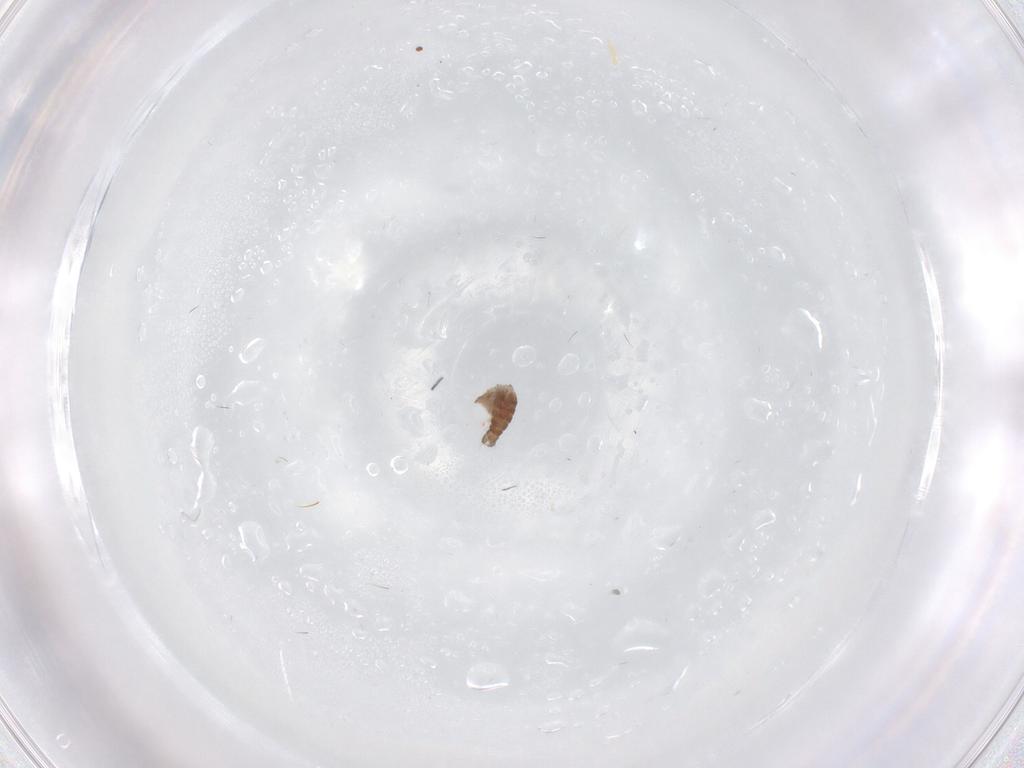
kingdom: Animalia
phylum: Arthropoda
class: Insecta
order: Diptera
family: Ceratopogonidae
